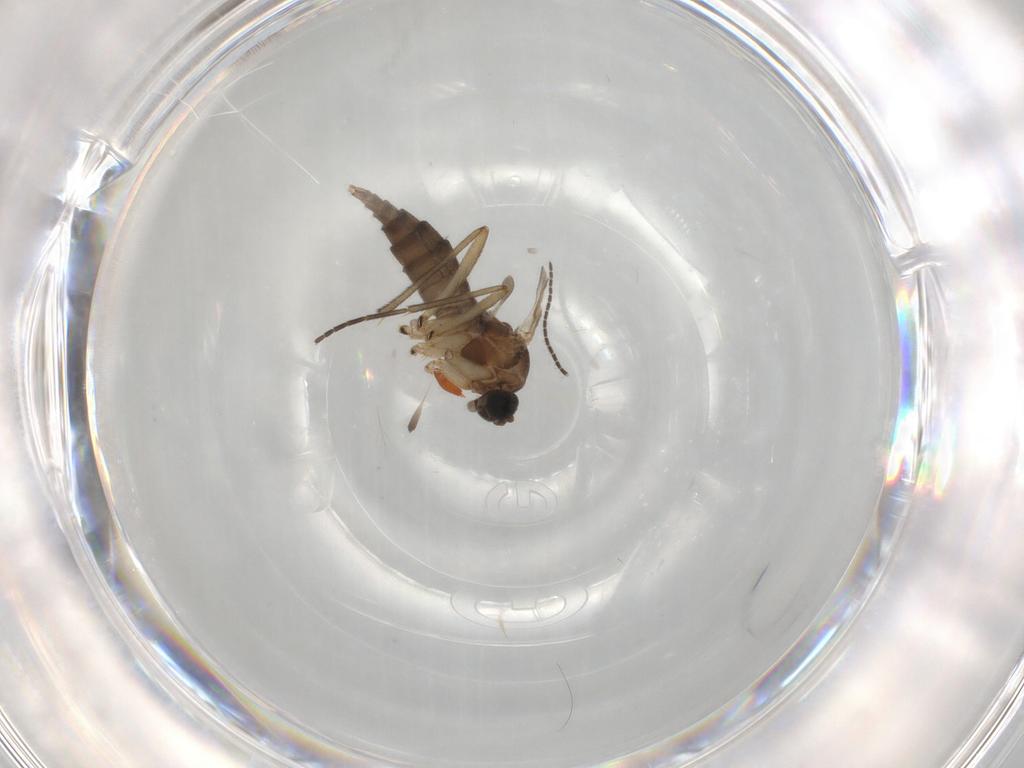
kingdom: Animalia
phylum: Arthropoda
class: Insecta
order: Diptera
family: Sciaridae
